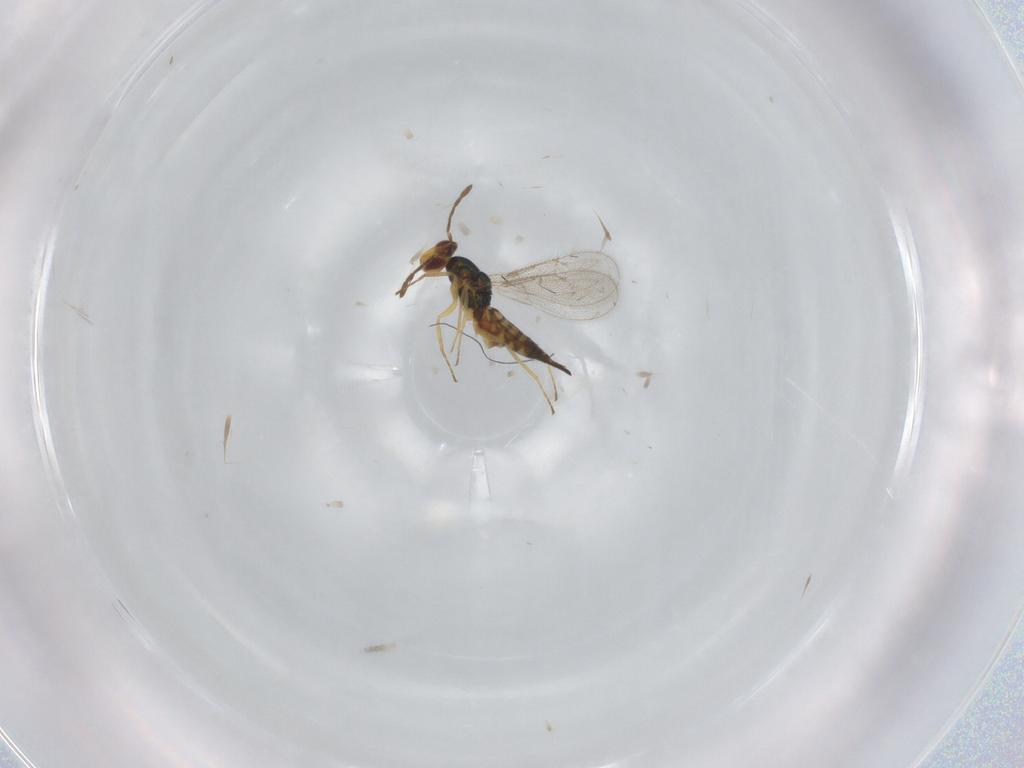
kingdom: Animalia
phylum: Arthropoda
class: Insecta
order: Hymenoptera
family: Eulophidae
